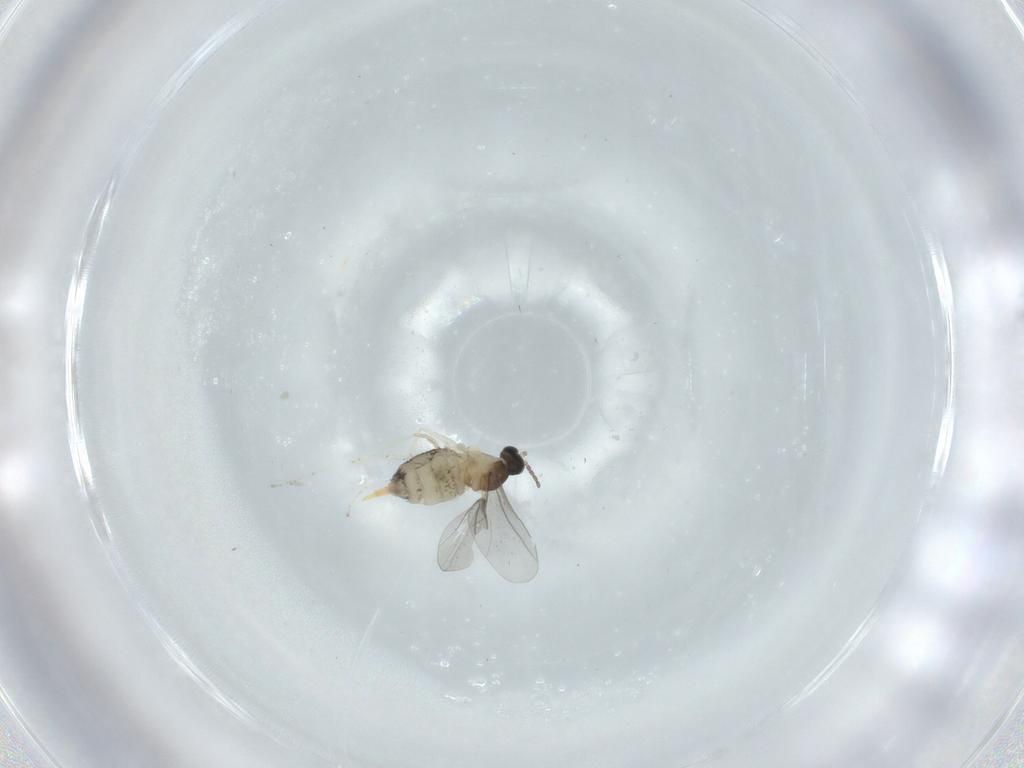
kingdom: Animalia
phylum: Arthropoda
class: Insecta
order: Diptera
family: Cecidomyiidae
